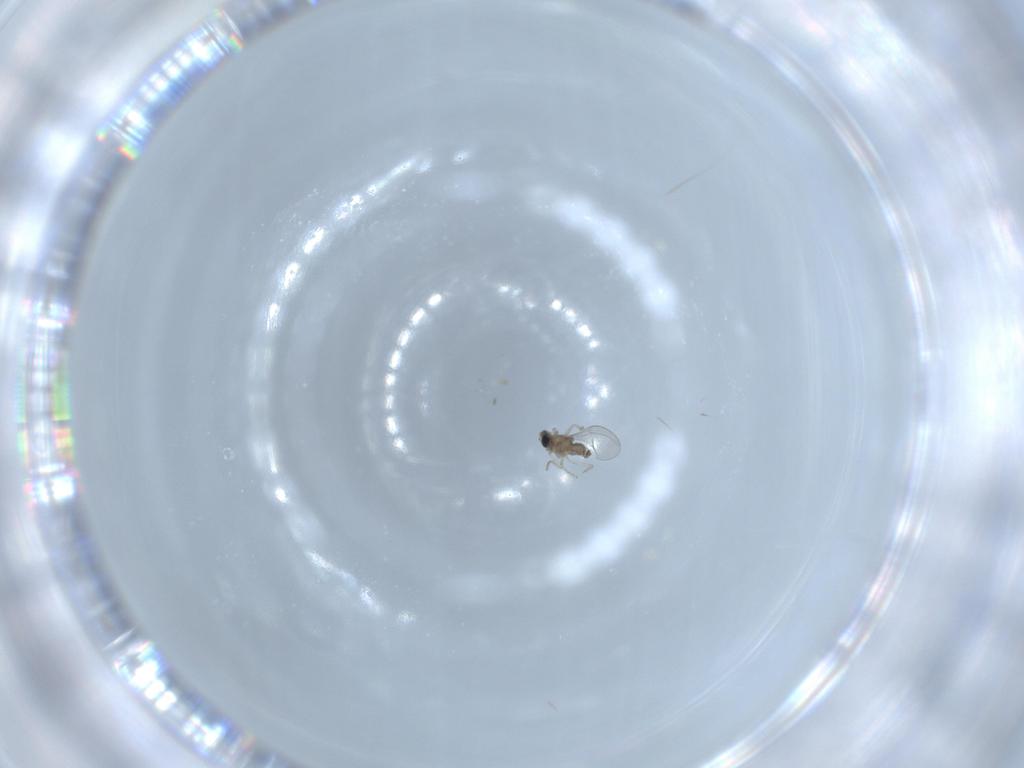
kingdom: Animalia
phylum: Arthropoda
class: Insecta
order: Diptera
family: Cecidomyiidae
